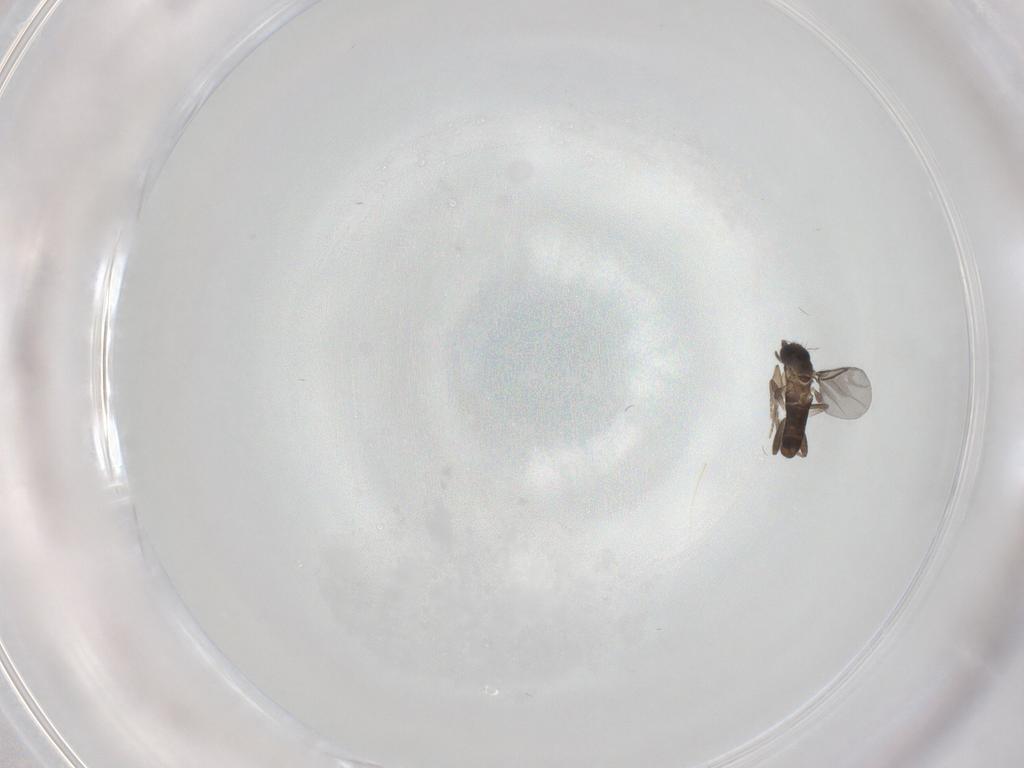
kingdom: Animalia
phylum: Arthropoda
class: Insecta
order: Diptera
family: Phoridae
